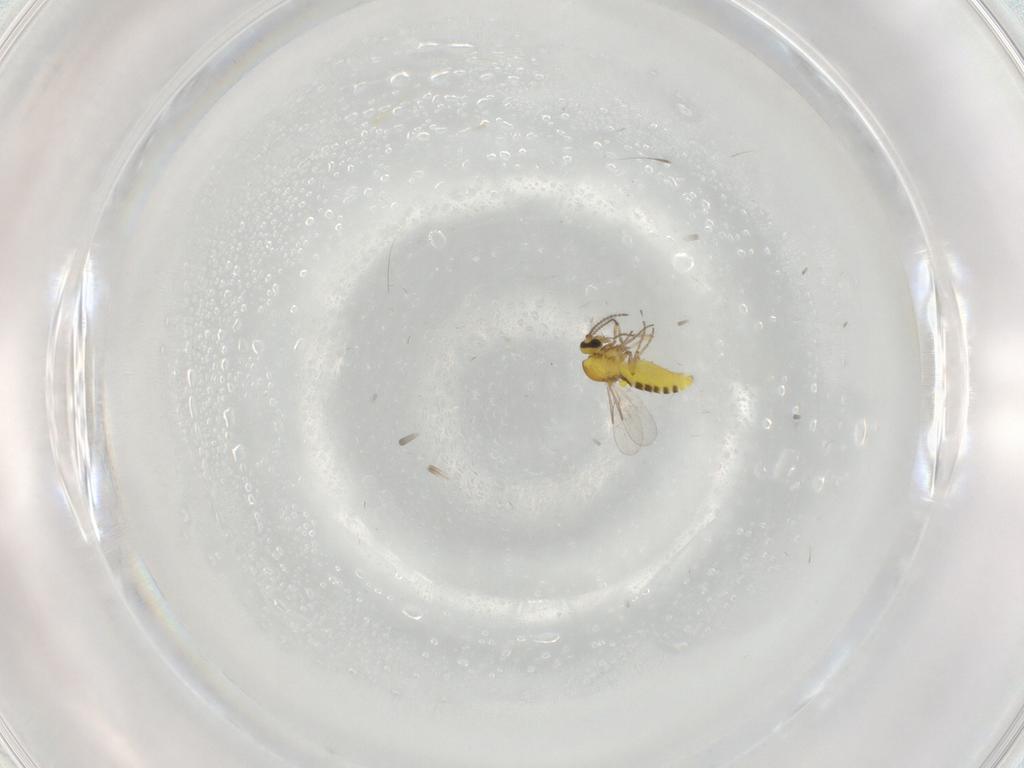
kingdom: Animalia
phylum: Arthropoda
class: Insecta
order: Diptera
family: Ceratopogonidae
